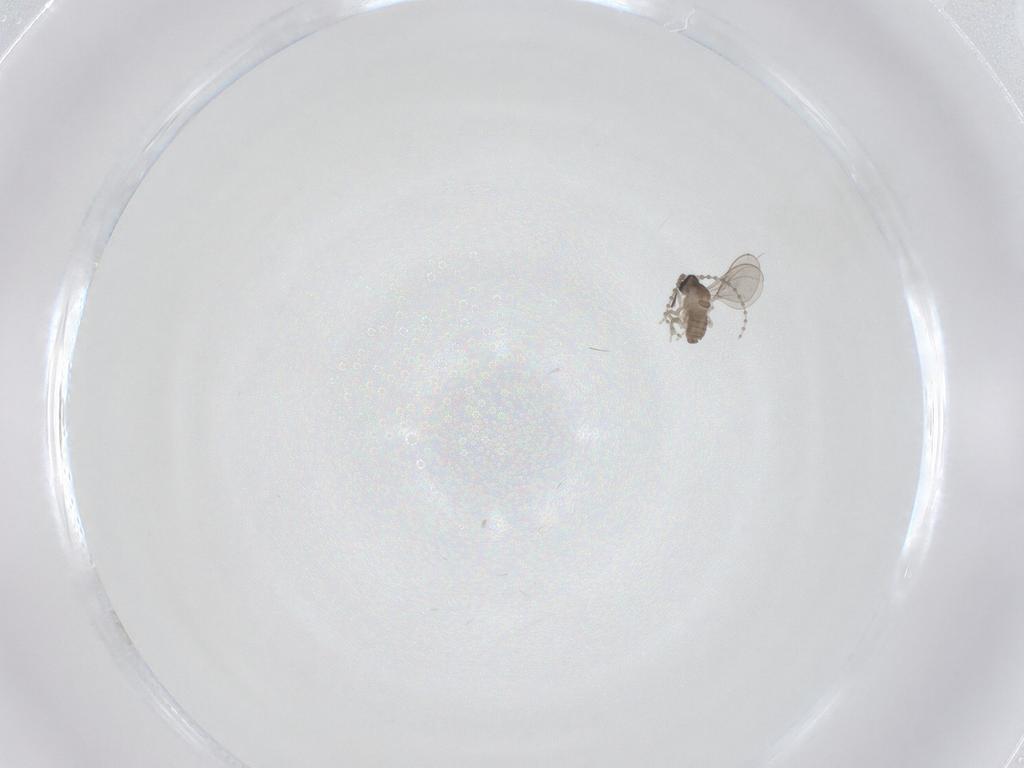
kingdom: Animalia
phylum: Arthropoda
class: Insecta
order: Diptera
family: Cecidomyiidae
